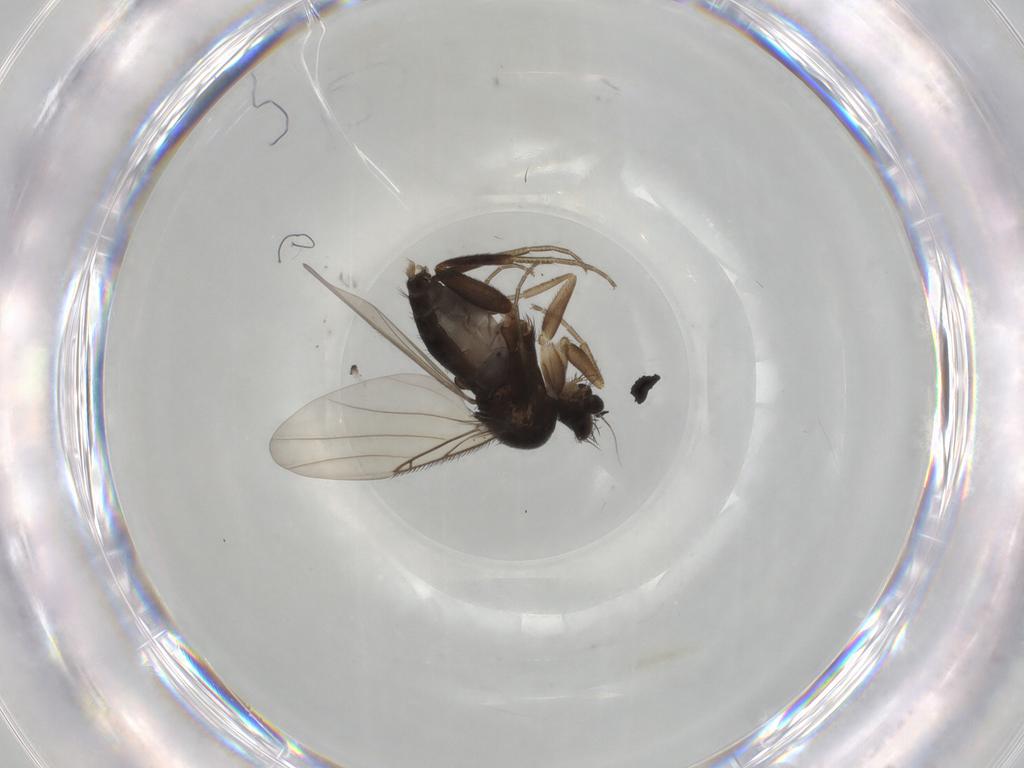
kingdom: Animalia
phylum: Arthropoda
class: Insecta
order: Diptera
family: Phoridae
